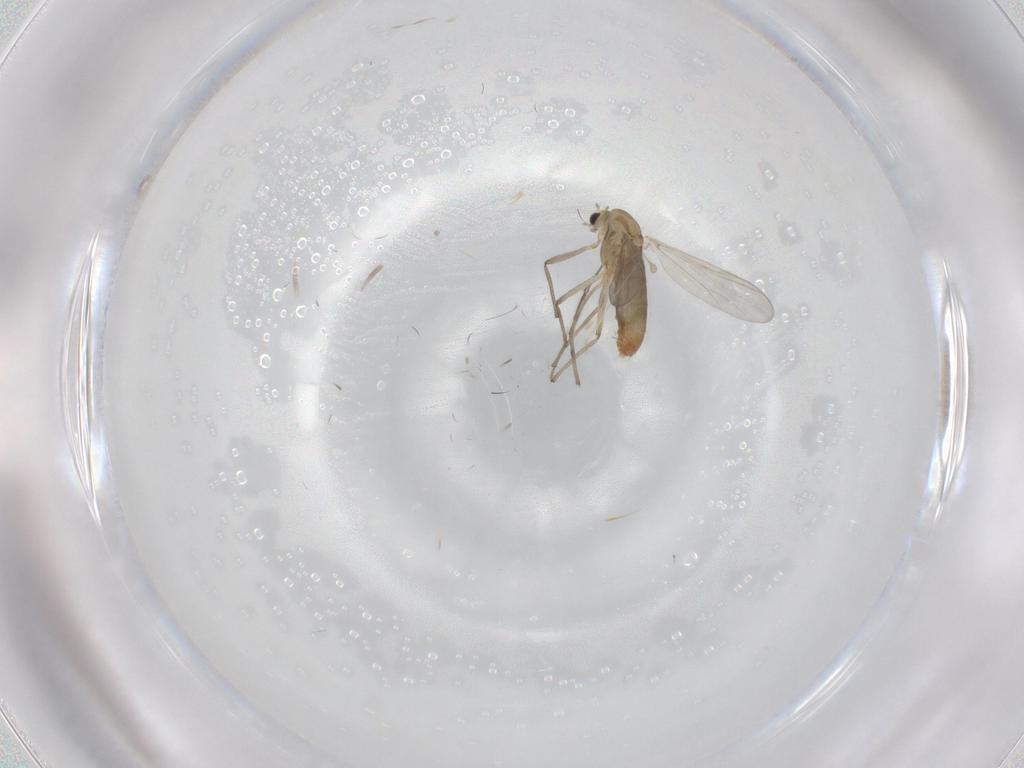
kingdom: Animalia
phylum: Arthropoda
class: Insecta
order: Diptera
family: Chironomidae
